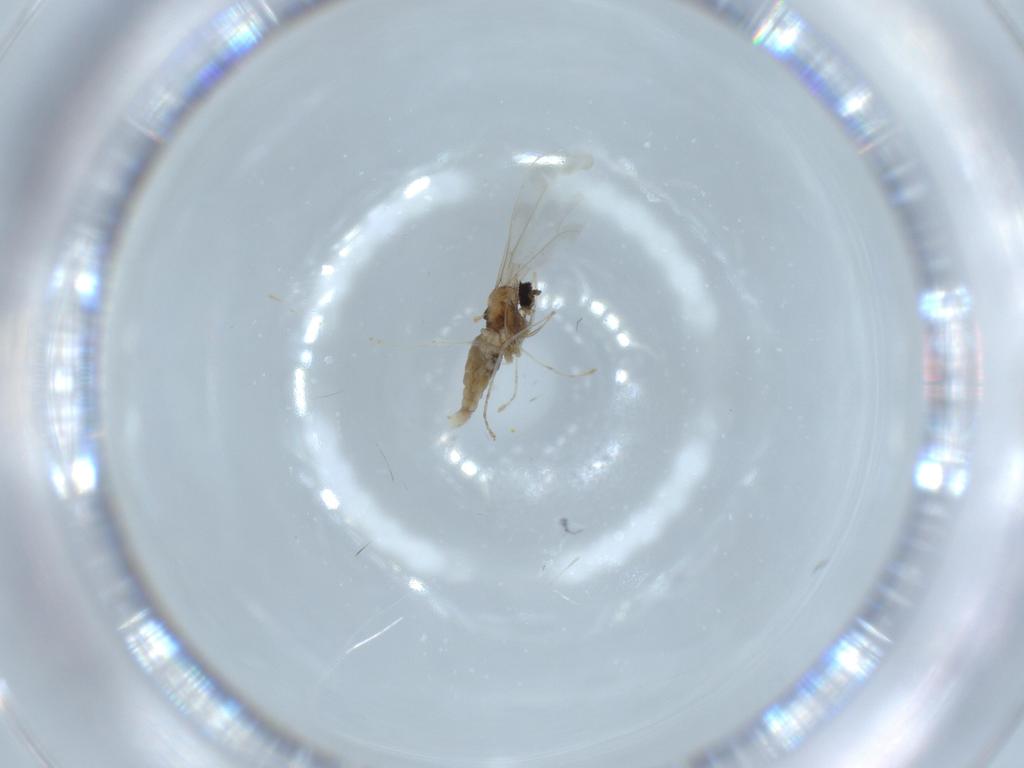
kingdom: Animalia
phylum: Arthropoda
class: Insecta
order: Diptera
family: Cecidomyiidae
